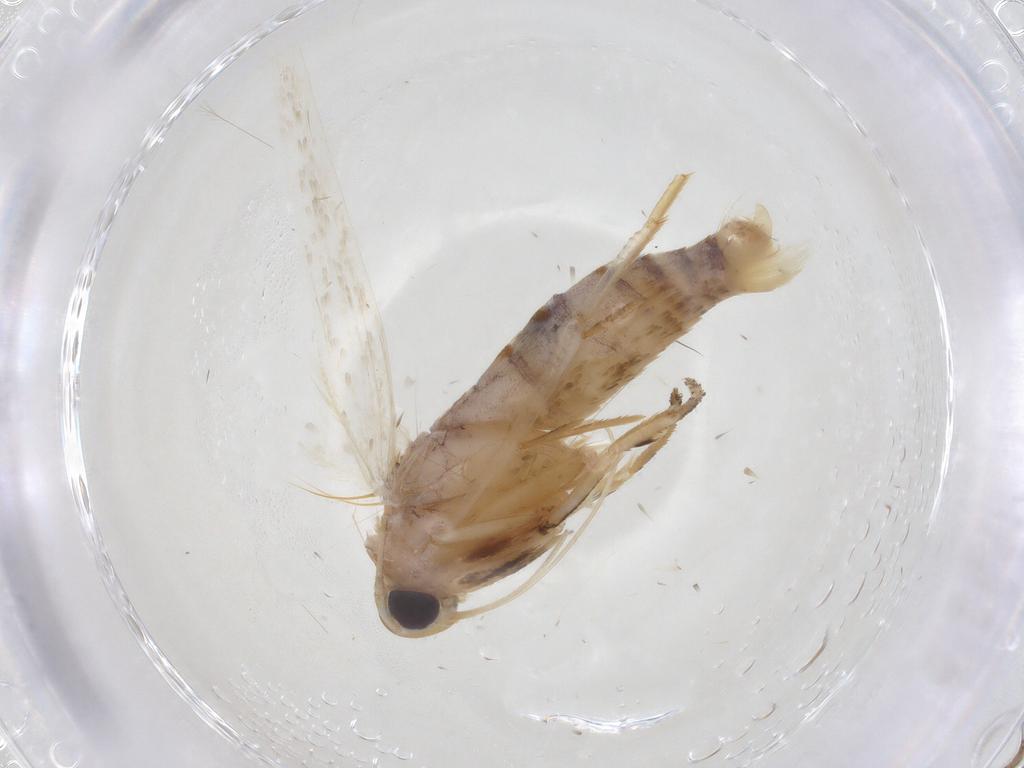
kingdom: Animalia
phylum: Arthropoda
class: Insecta
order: Lepidoptera
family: Stathmopodidae
